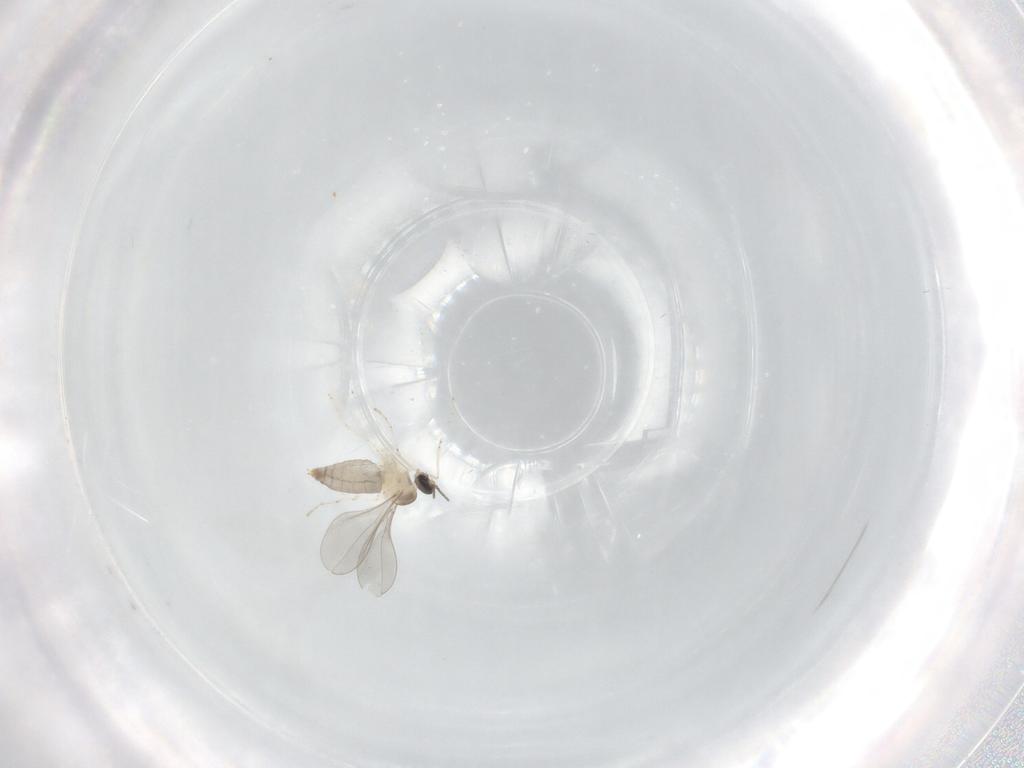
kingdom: Animalia
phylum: Arthropoda
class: Insecta
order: Diptera
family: Cecidomyiidae
